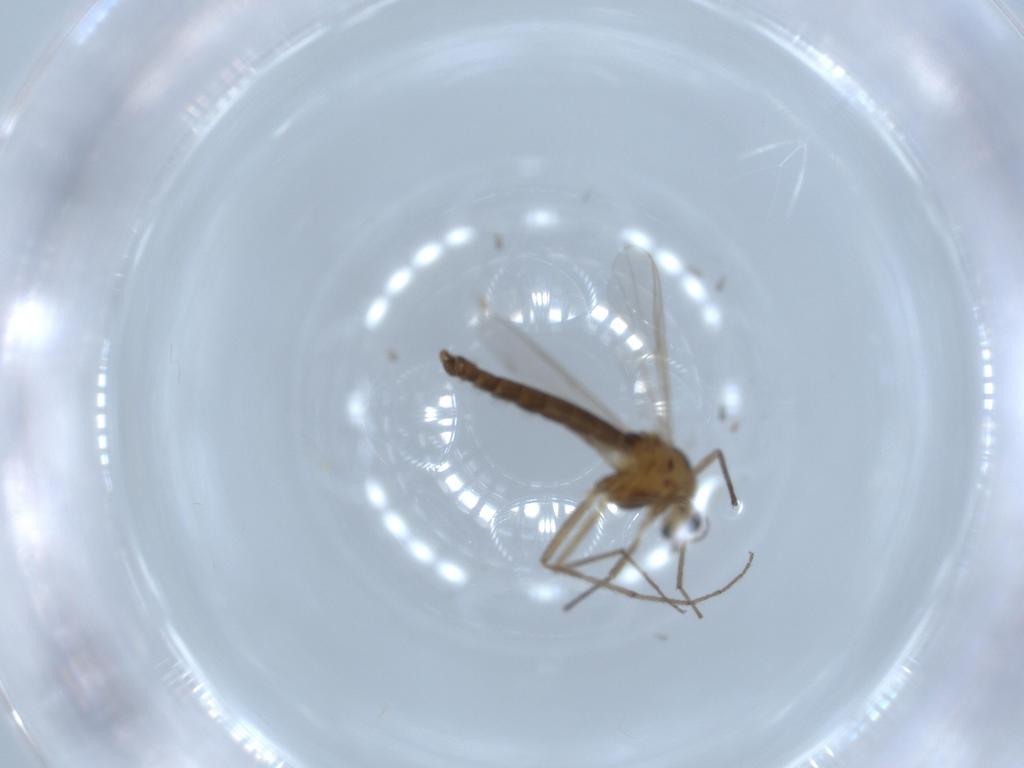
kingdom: Animalia
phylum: Arthropoda
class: Insecta
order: Diptera
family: Chironomidae
